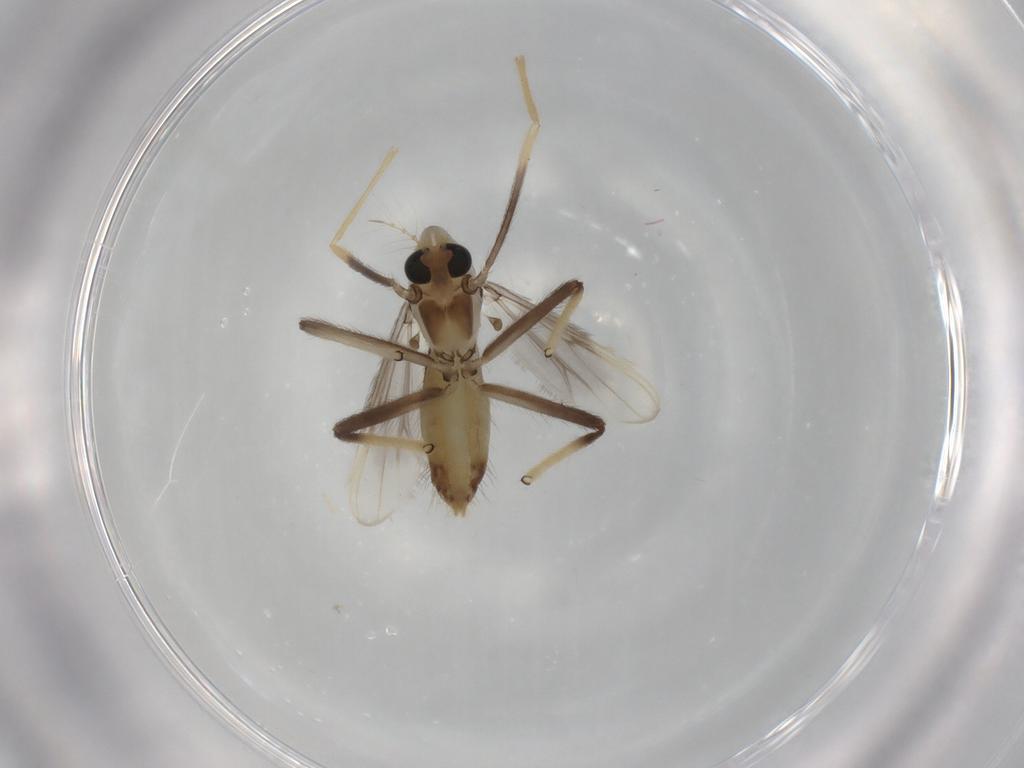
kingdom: Animalia
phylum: Arthropoda
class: Insecta
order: Diptera
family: Chironomidae
